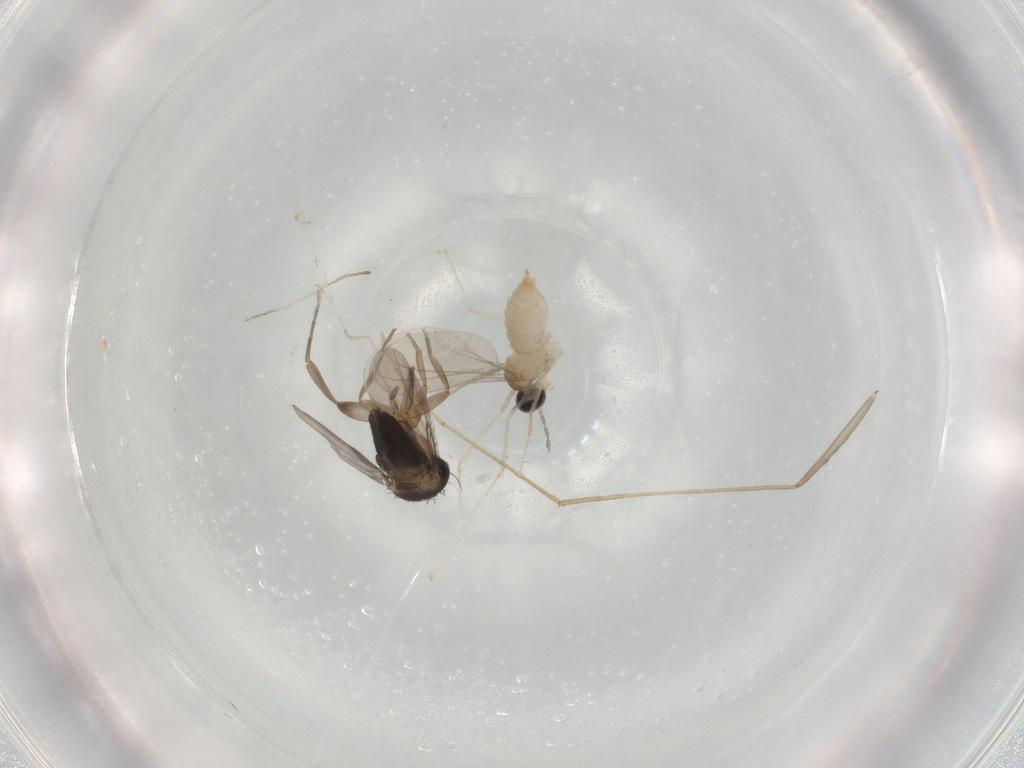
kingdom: Animalia
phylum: Arthropoda
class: Insecta
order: Diptera
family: Phoridae
